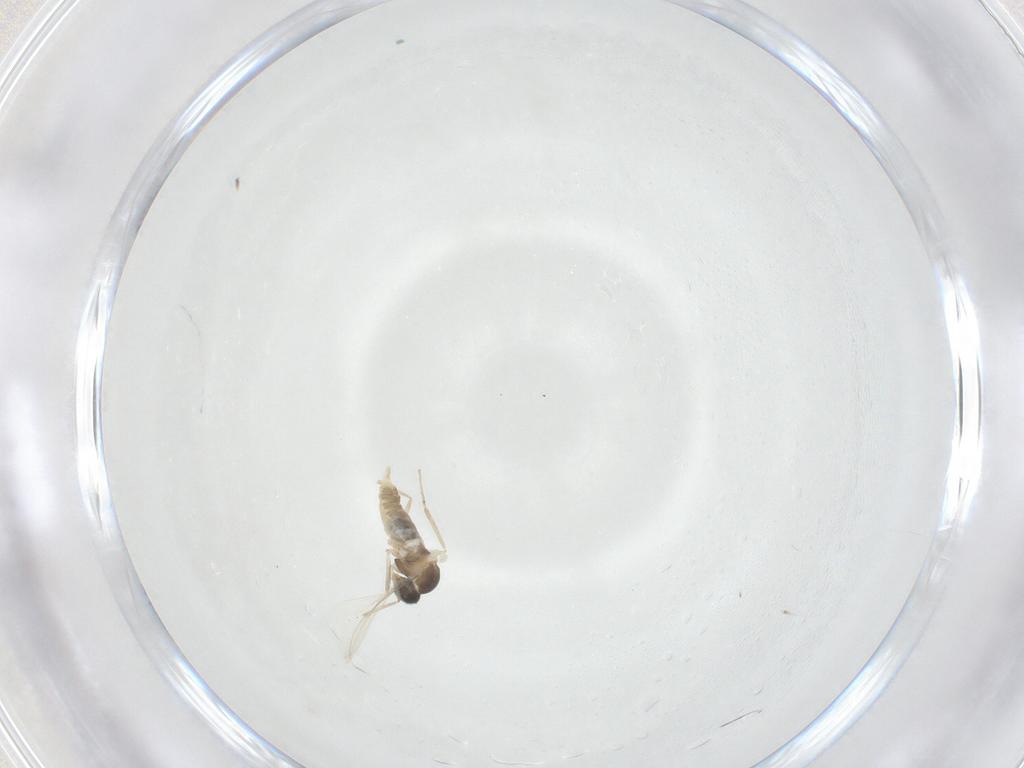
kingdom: Animalia
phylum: Arthropoda
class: Insecta
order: Diptera
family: Cecidomyiidae
